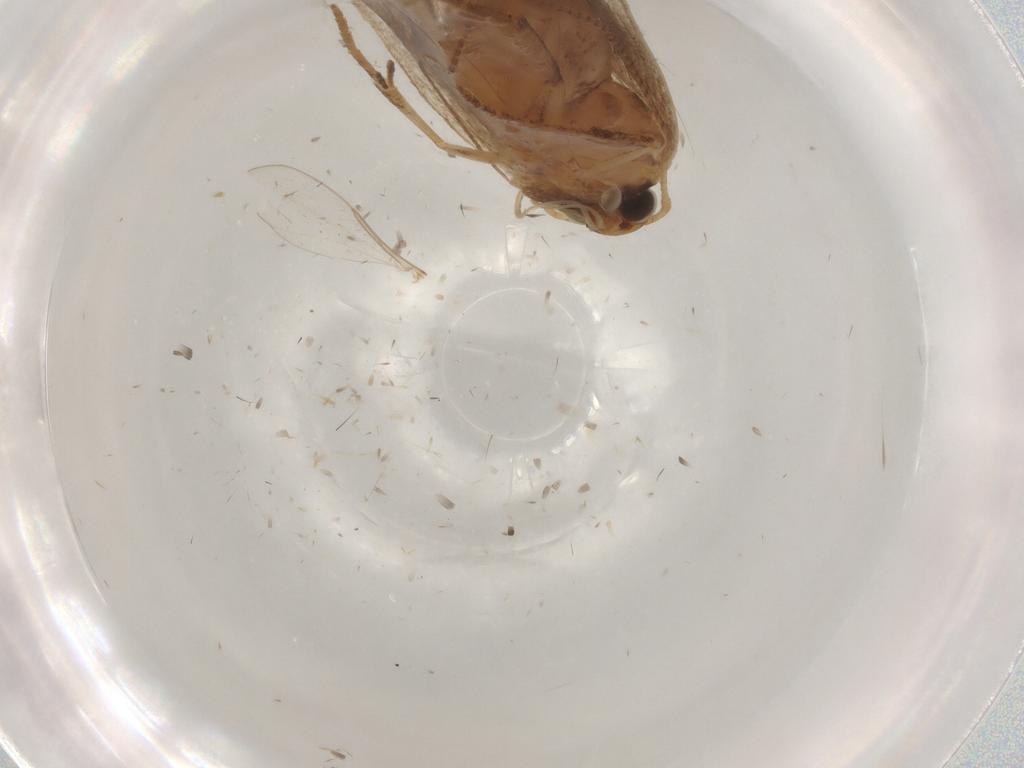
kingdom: Animalia
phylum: Arthropoda
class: Insecta
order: Lepidoptera
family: Gelechiidae
